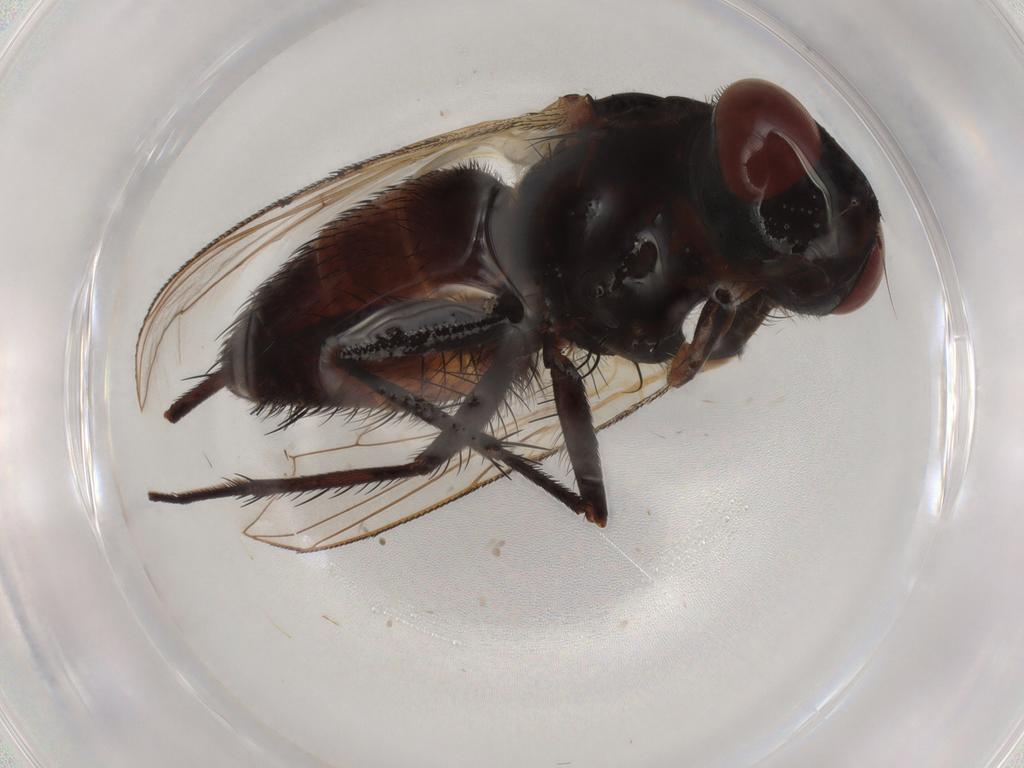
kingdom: Animalia
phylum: Arthropoda
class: Insecta
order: Diptera
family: Sarcophagidae
